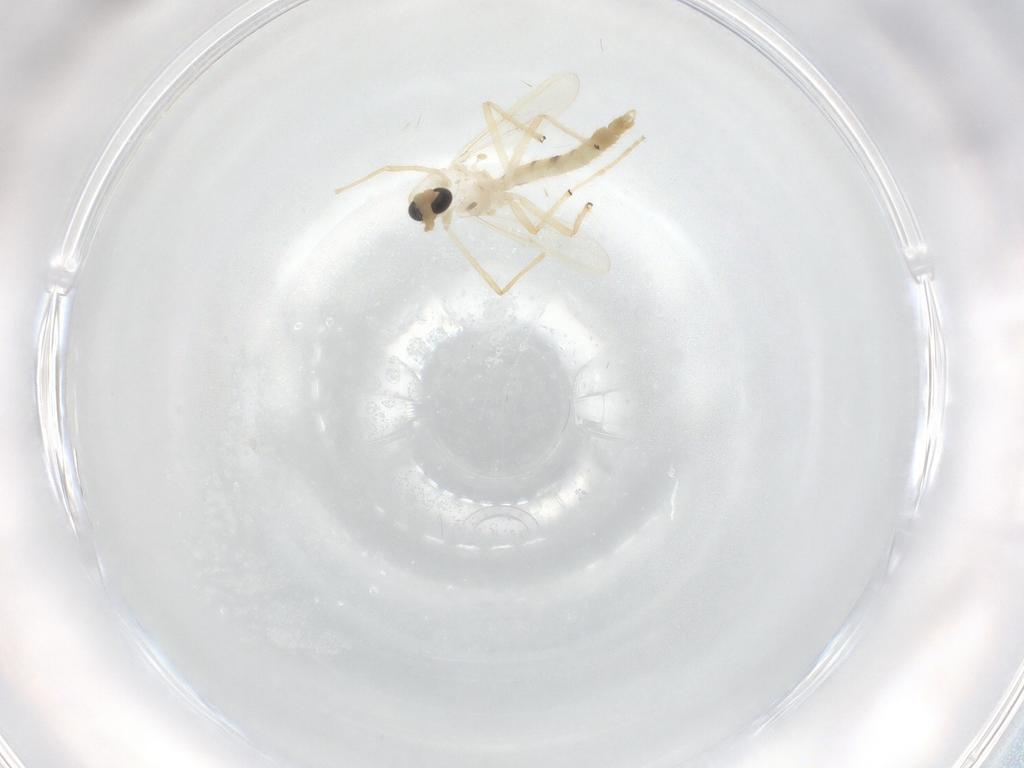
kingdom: Animalia
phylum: Arthropoda
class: Insecta
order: Diptera
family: Chironomidae
